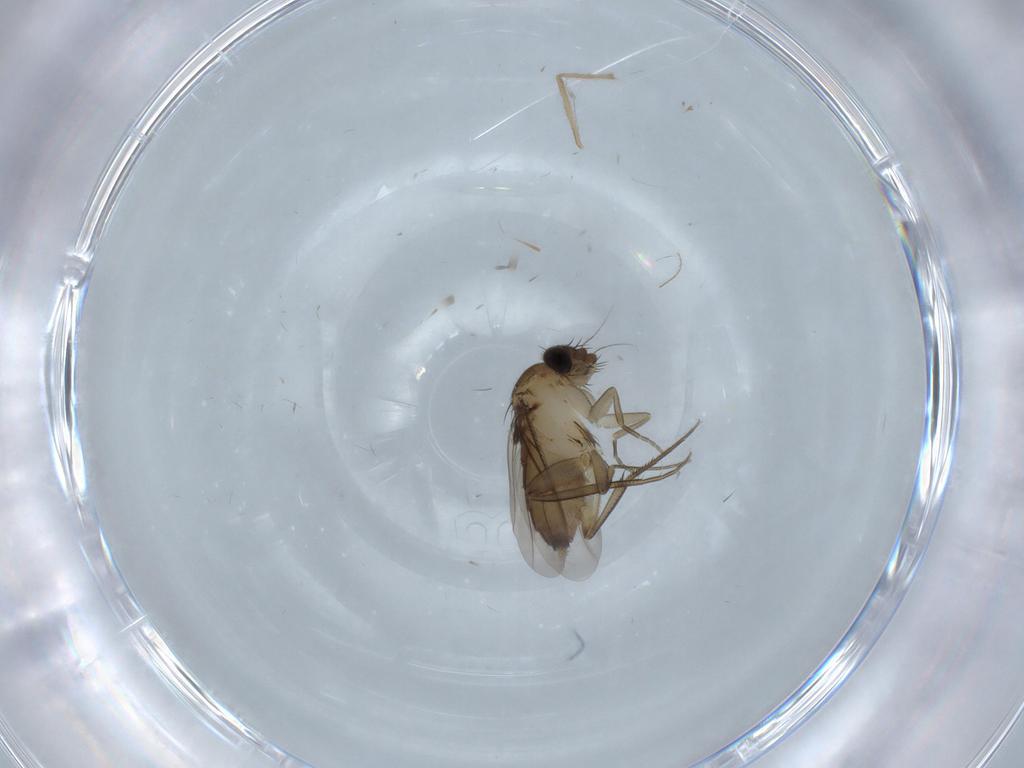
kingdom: Animalia
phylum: Arthropoda
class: Insecta
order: Diptera
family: Phoridae
